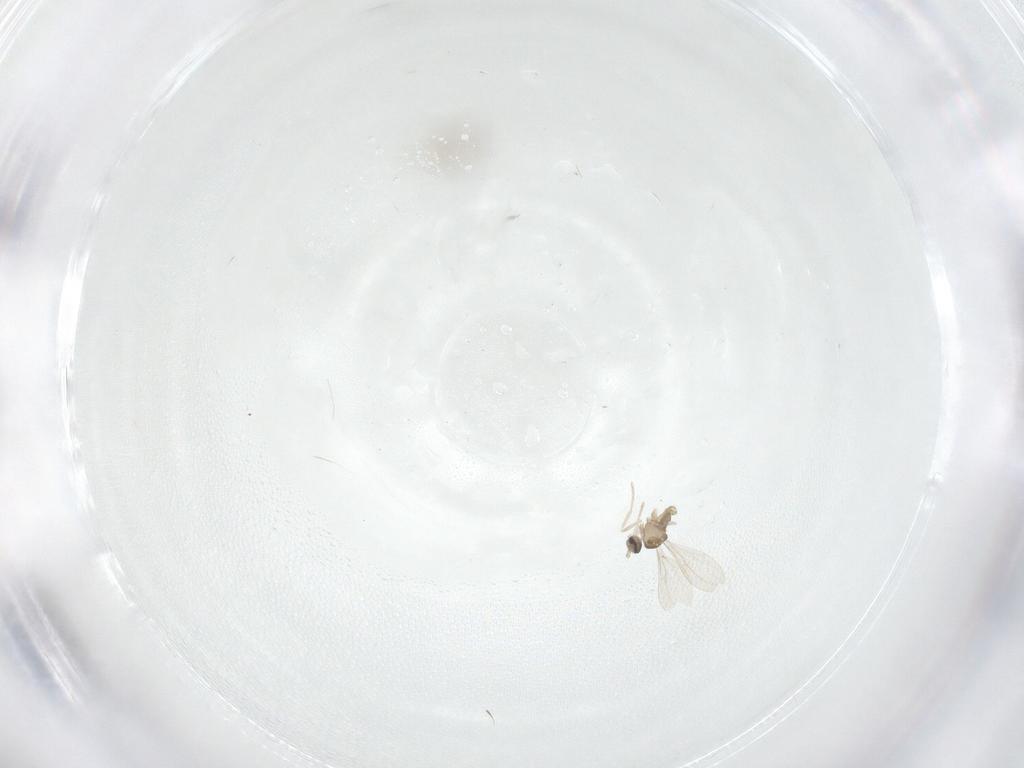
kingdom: Animalia
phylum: Arthropoda
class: Insecta
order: Diptera
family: Cecidomyiidae
